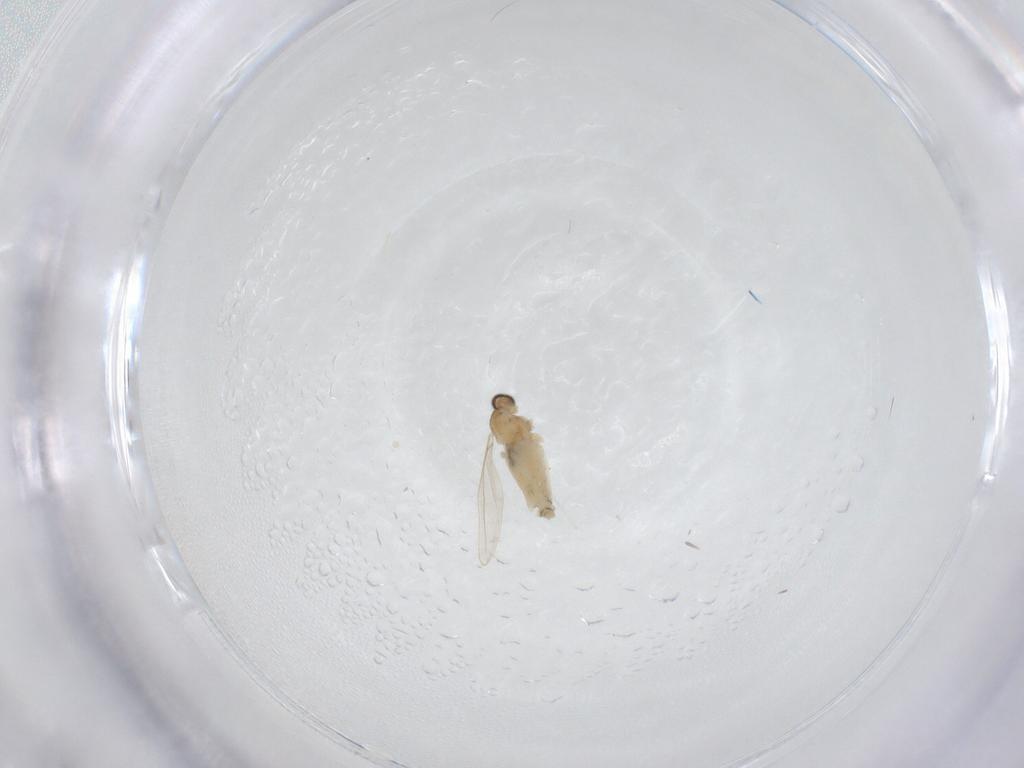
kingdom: Animalia
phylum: Arthropoda
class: Insecta
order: Diptera
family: Cecidomyiidae
